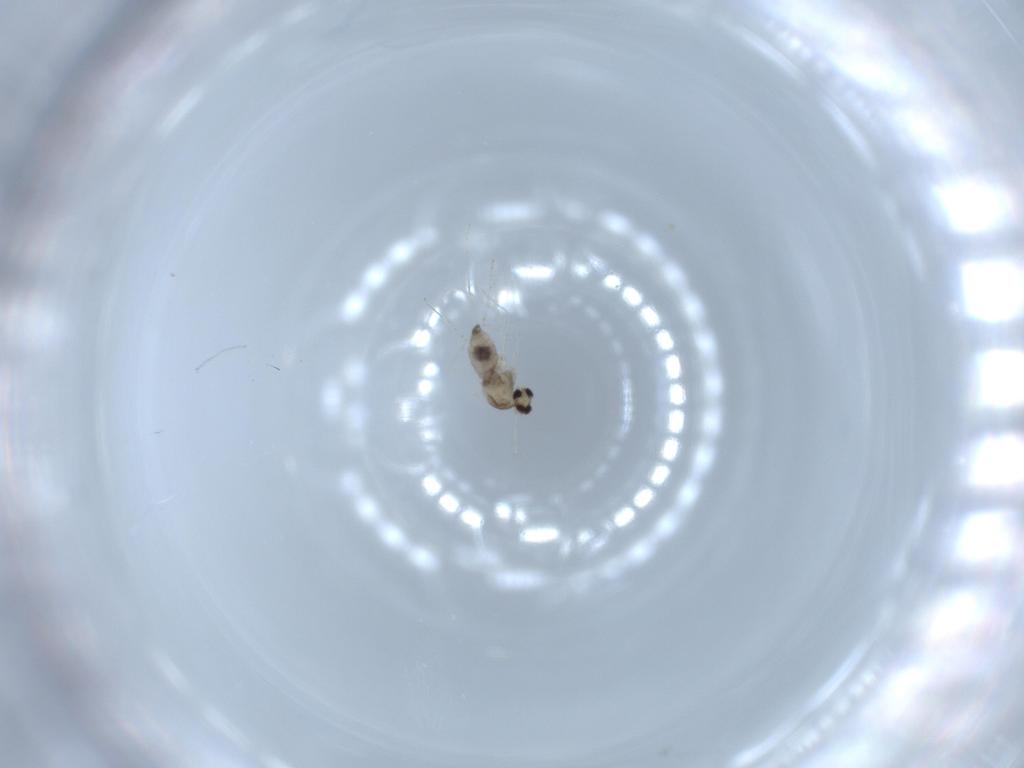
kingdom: Animalia
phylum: Arthropoda
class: Insecta
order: Diptera
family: Cecidomyiidae
